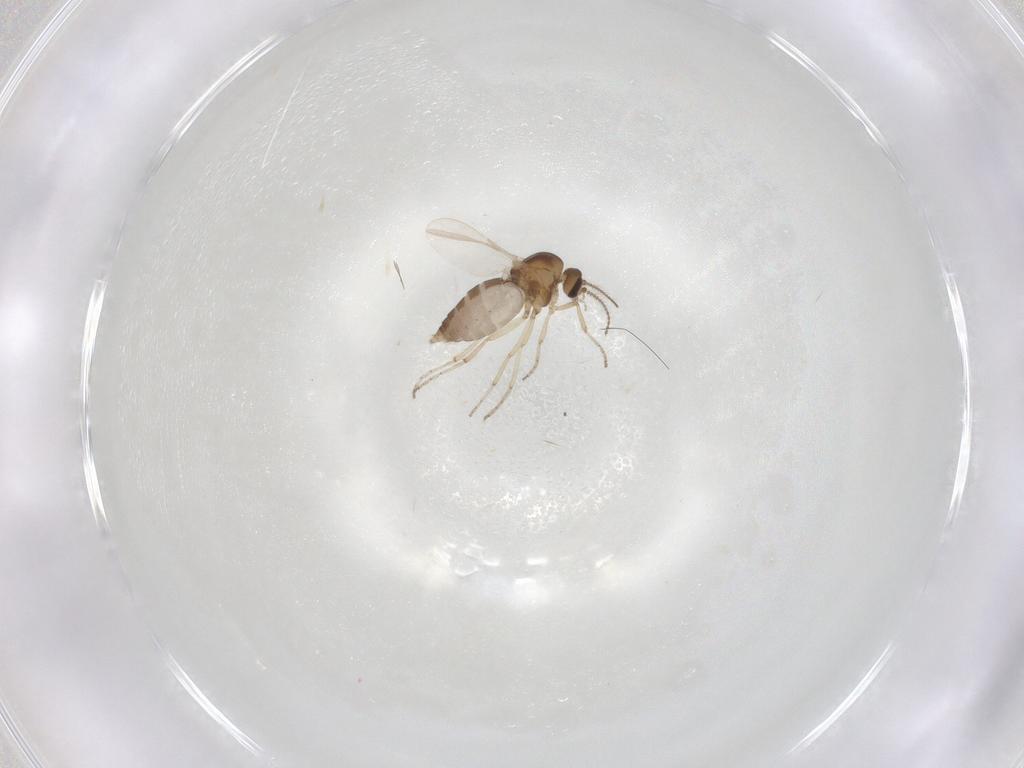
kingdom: Animalia
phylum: Arthropoda
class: Insecta
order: Diptera
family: Ceratopogonidae
